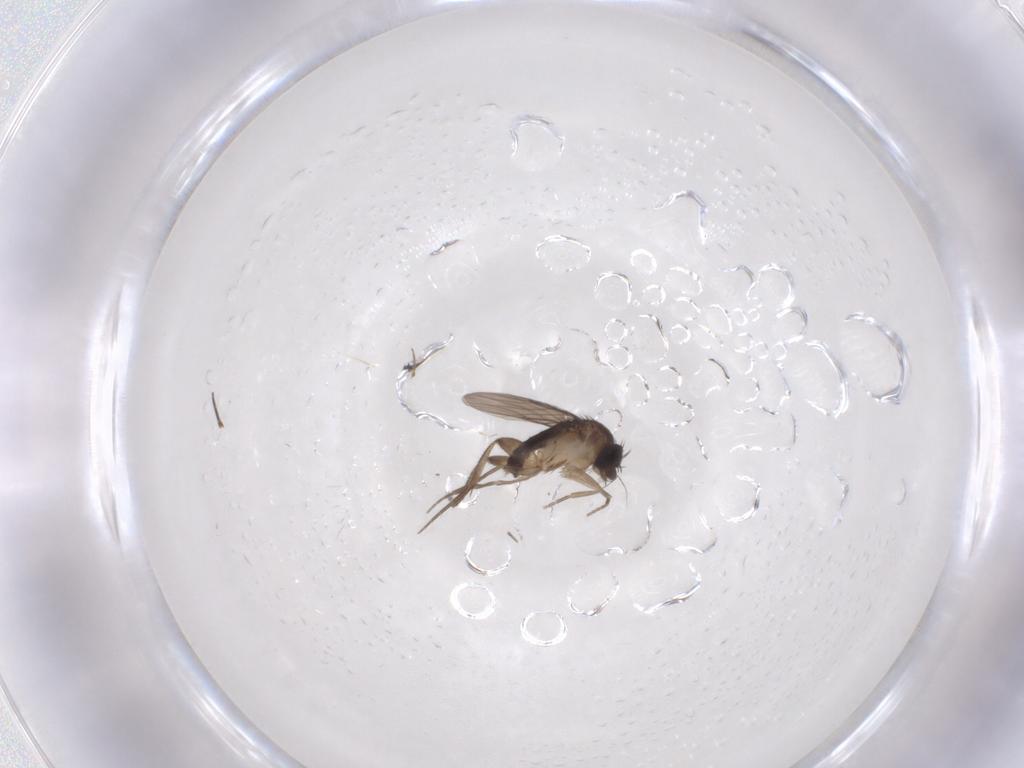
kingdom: Animalia
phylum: Arthropoda
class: Insecta
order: Diptera
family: Phoridae
